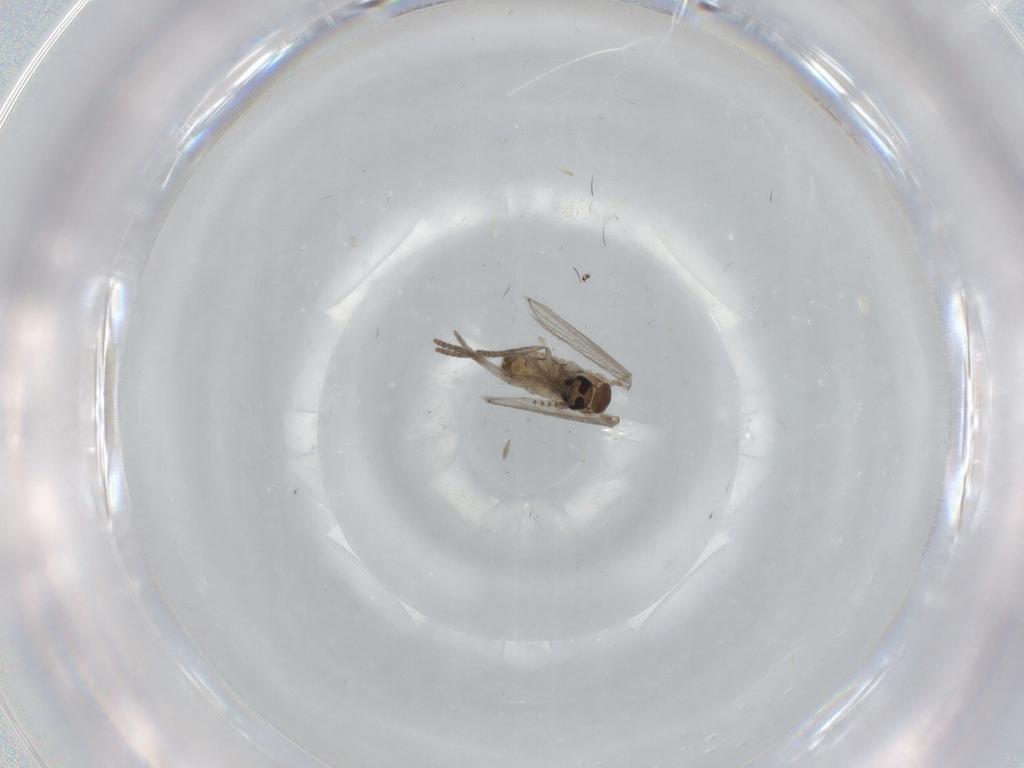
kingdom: Animalia
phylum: Arthropoda
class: Insecta
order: Diptera
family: Psychodidae
